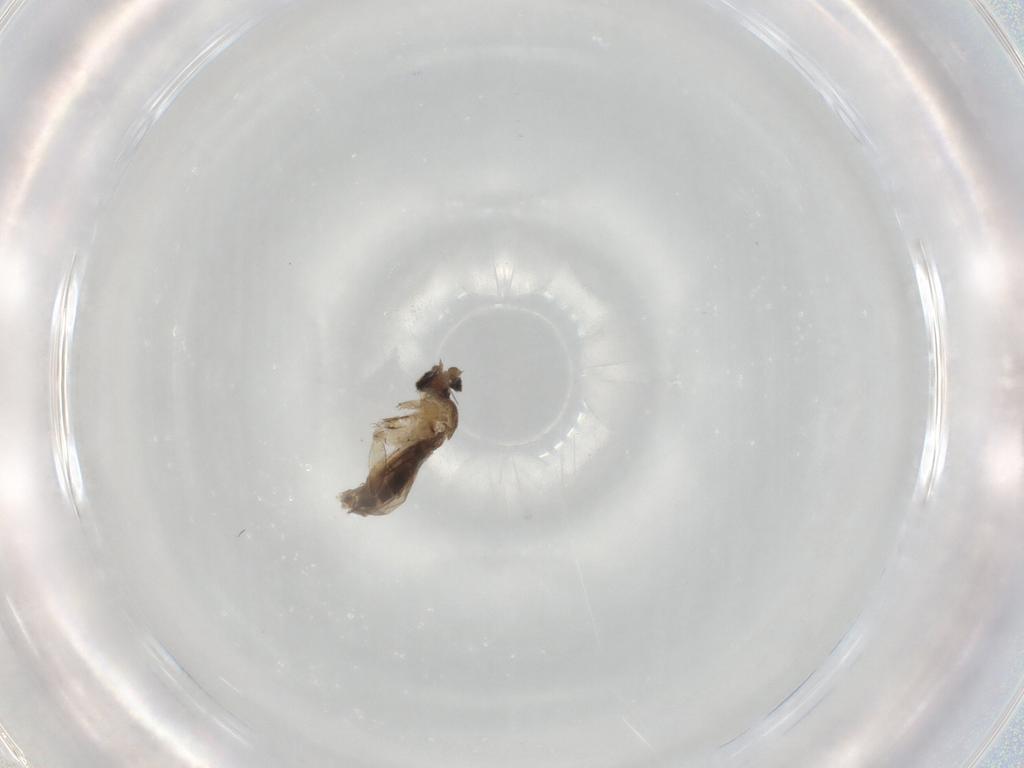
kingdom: Animalia
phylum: Arthropoda
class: Insecta
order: Diptera
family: Phoridae
